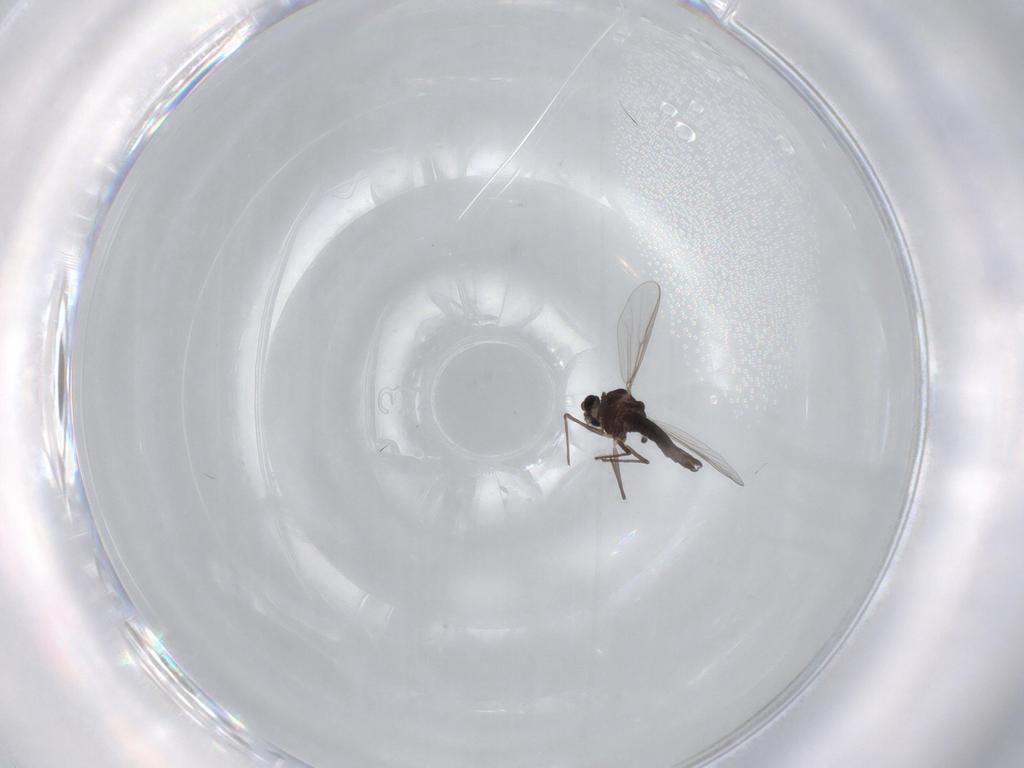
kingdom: Animalia
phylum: Arthropoda
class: Insecta
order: Diptera
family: Chironomidae
